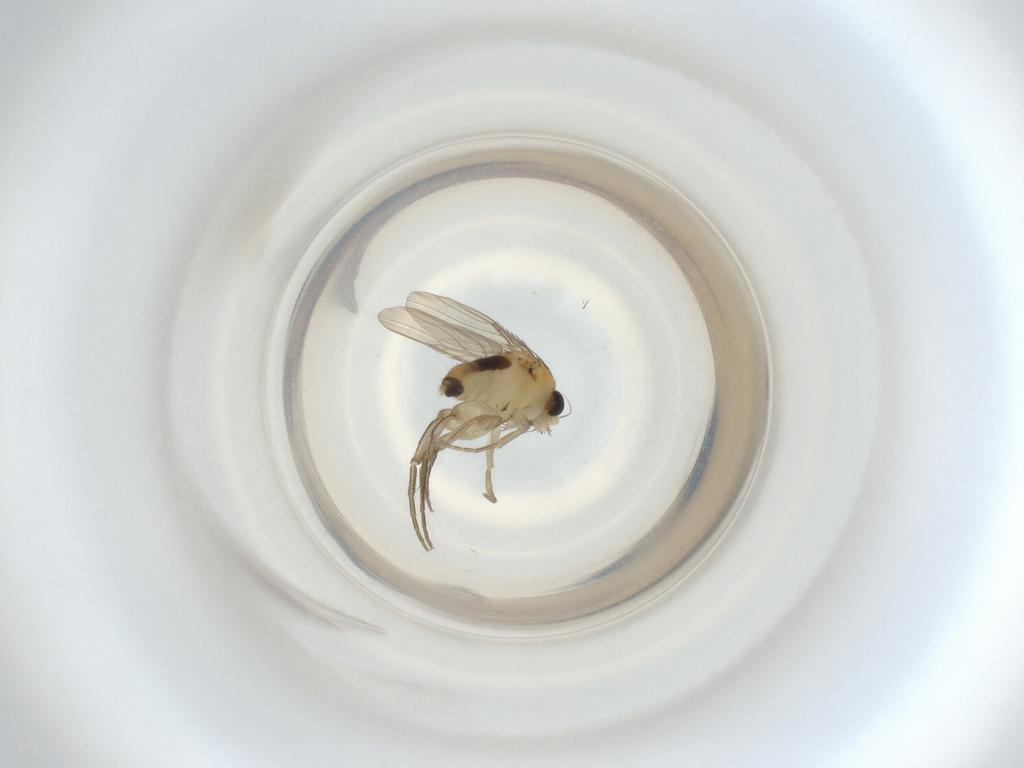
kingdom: Animalia
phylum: Arthropoda
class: Insecta
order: Diptera
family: Phoridae
